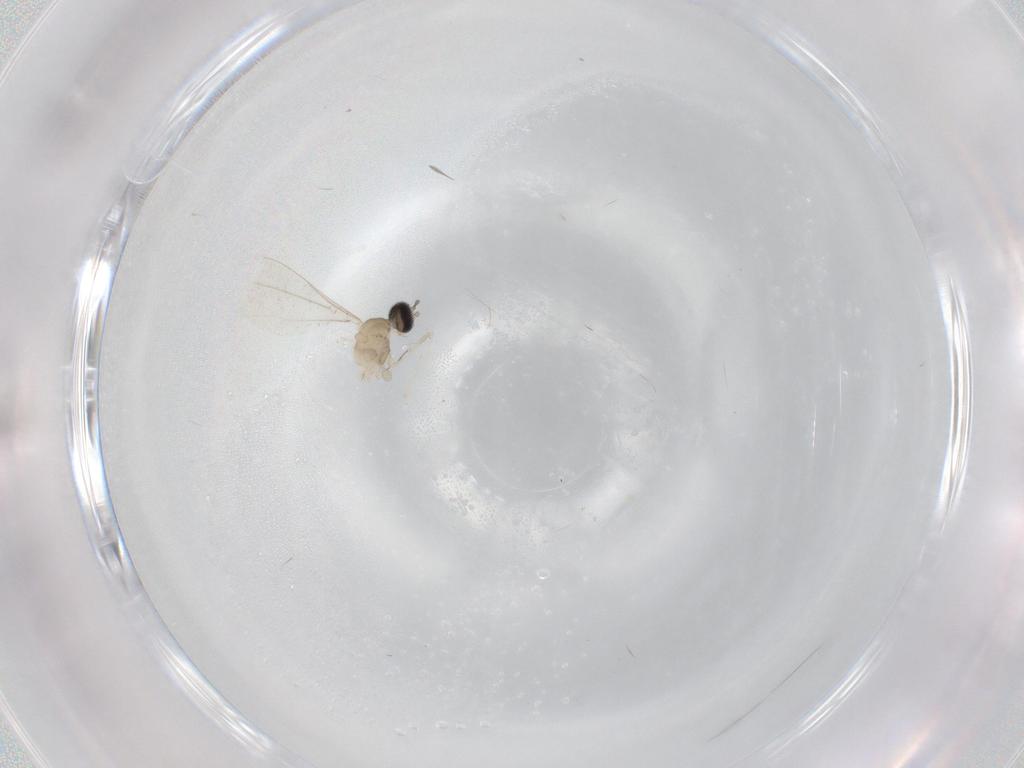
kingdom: Animalia
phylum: Arthropoda
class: Insecta
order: Diptera
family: Cecidomyiidae
